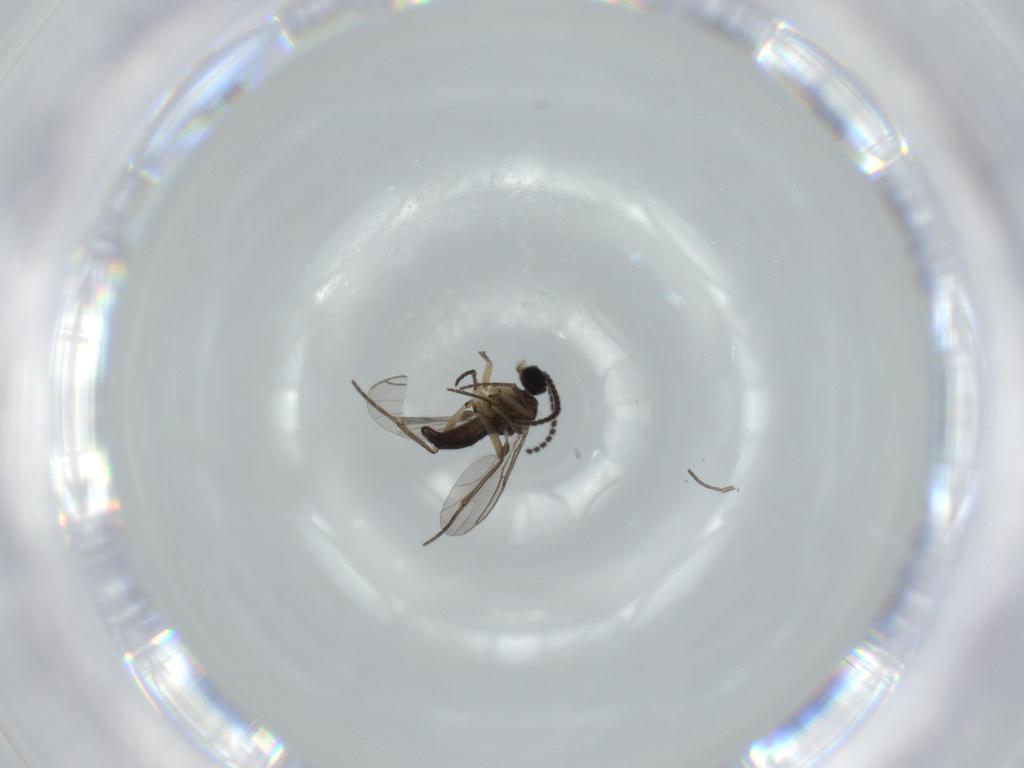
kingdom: Animalia
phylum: Arthropoda
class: Insecta
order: Diptera
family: Sciaridae
